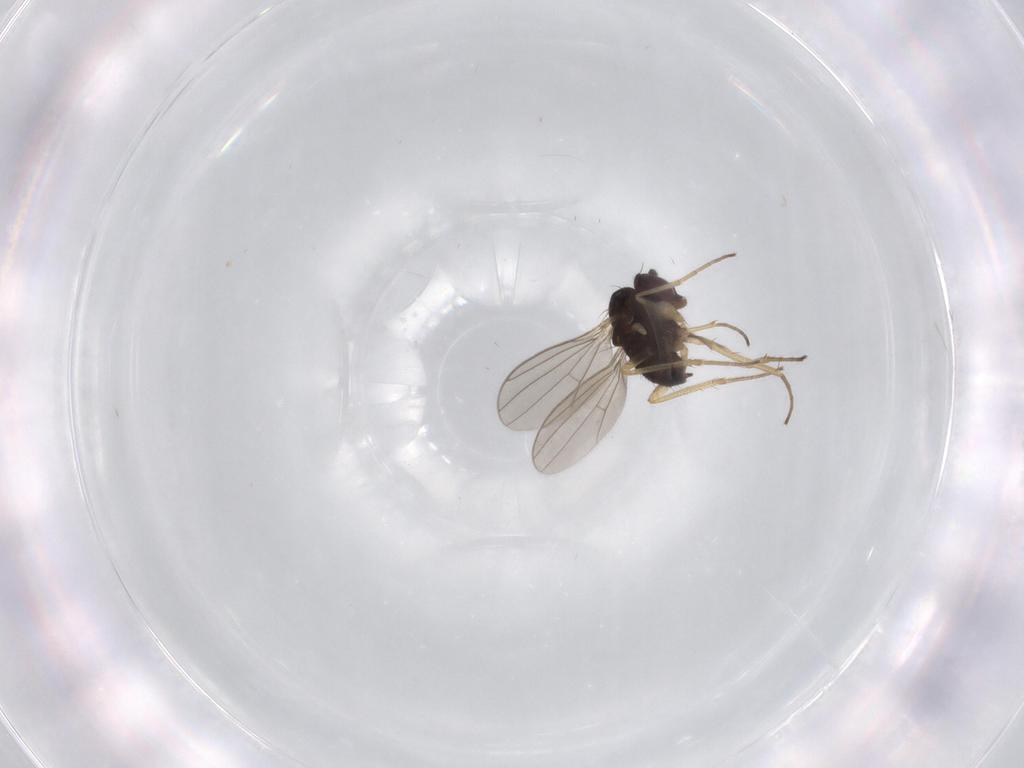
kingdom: Animalia
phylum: Arthropoda
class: Insecta
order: Diptera
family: Dolichopodidae
